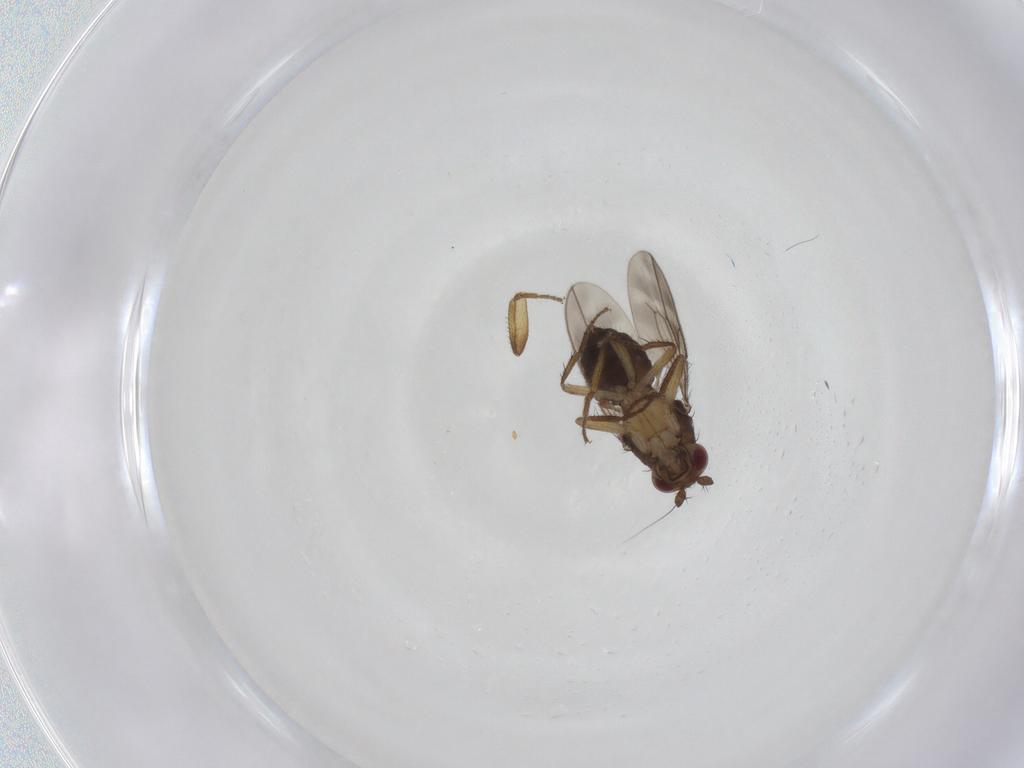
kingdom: Animalia
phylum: Arthropoda
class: Insecta
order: Diptera
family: Sphaeroceridae
